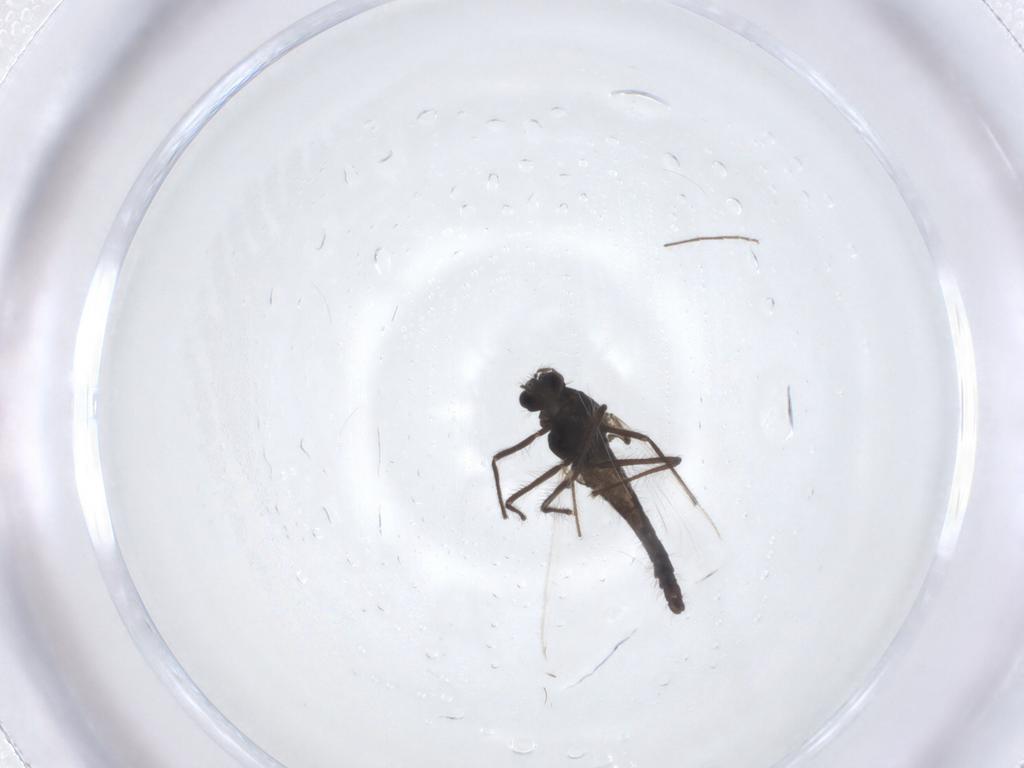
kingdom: Animalia
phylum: Arthropoda
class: Insecta
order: Diptera
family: Chironomidae
